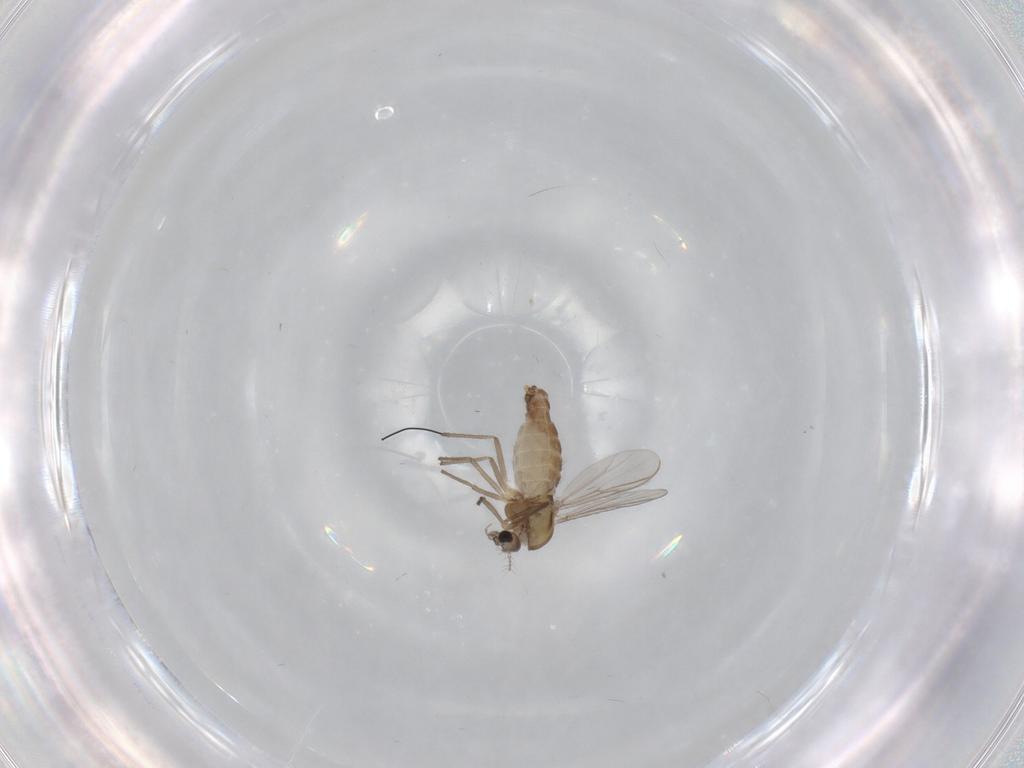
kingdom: Animalia
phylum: Arthropoda
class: Insecta
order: Diptera
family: Chironomidae
